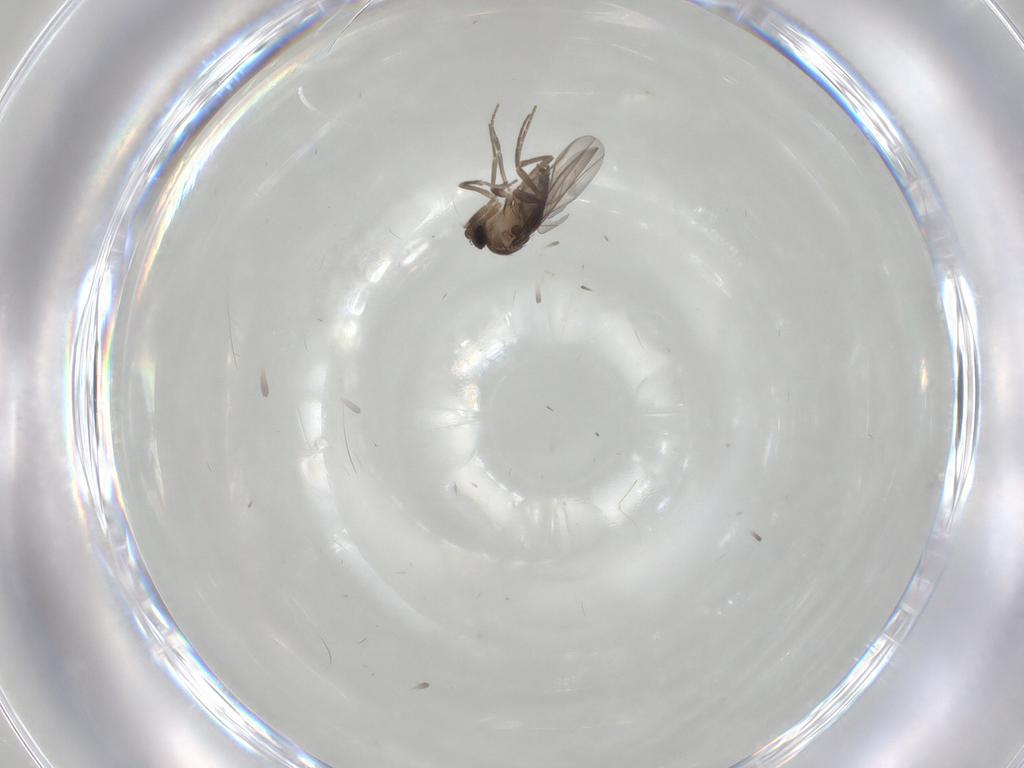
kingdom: Animalia
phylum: Arthropoda
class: Insecta
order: Diptera
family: Phoridae
